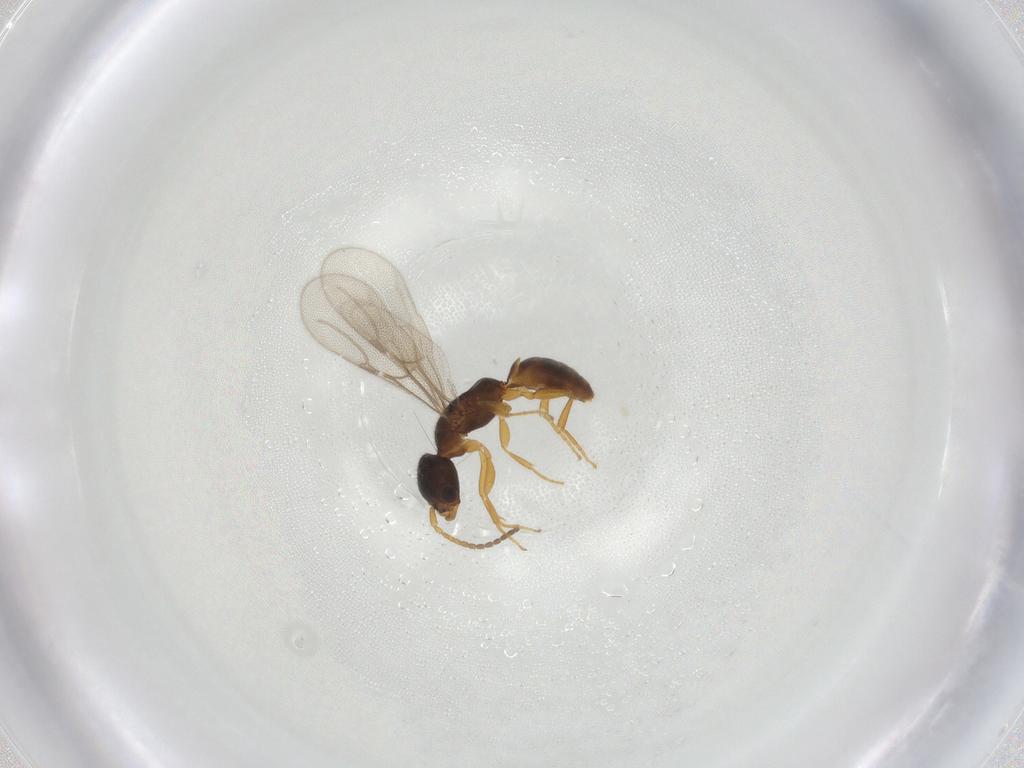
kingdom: Animalia
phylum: Arthropoda
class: Insecta
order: Hymenoptera
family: Bethylidae
